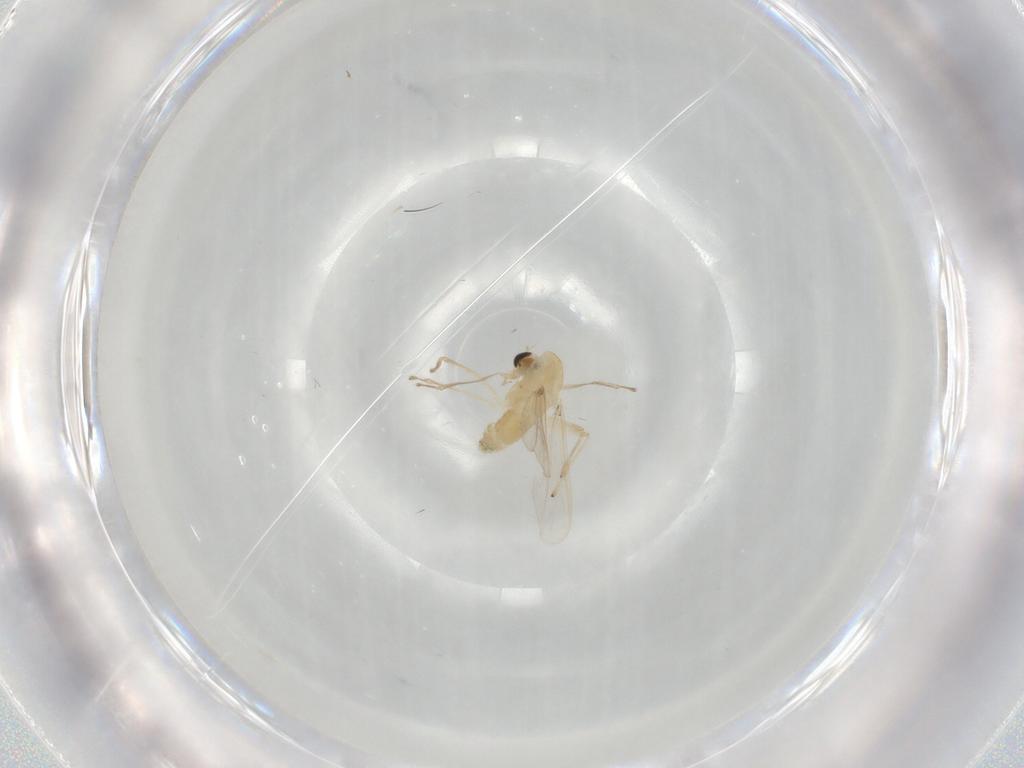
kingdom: Animalia
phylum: Arthropoda
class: Insecta
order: Diptera
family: Chironomidae
